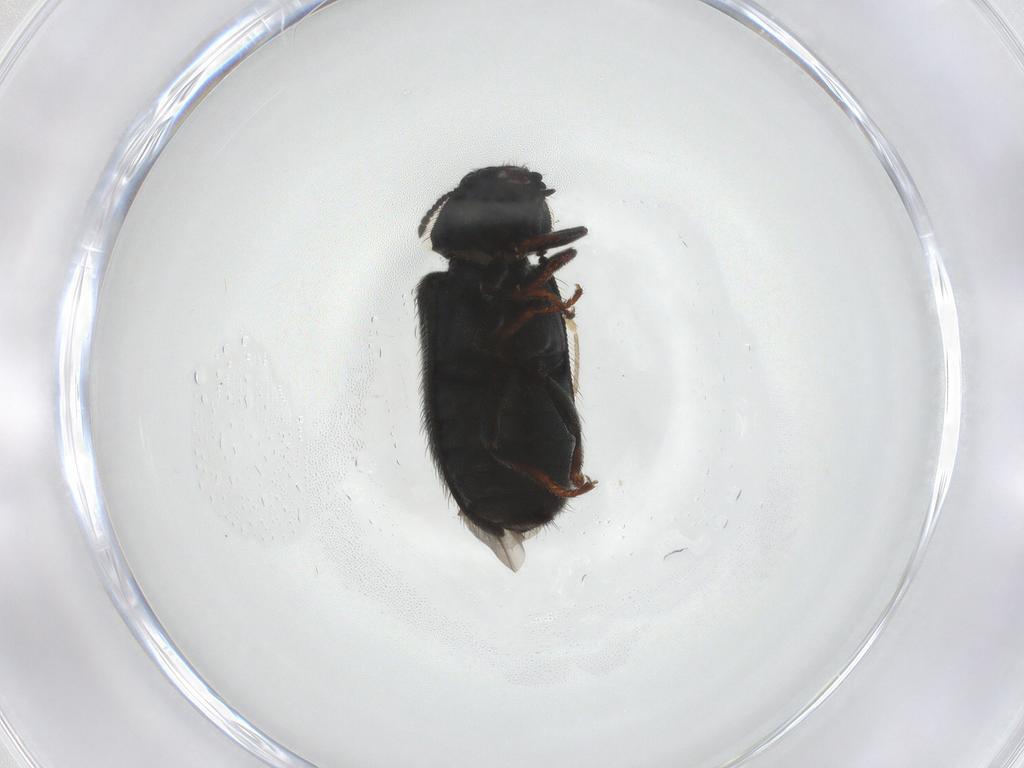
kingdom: Animalia
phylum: Arthropoda
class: Insecta
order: Coleoptera
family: Melyridae
